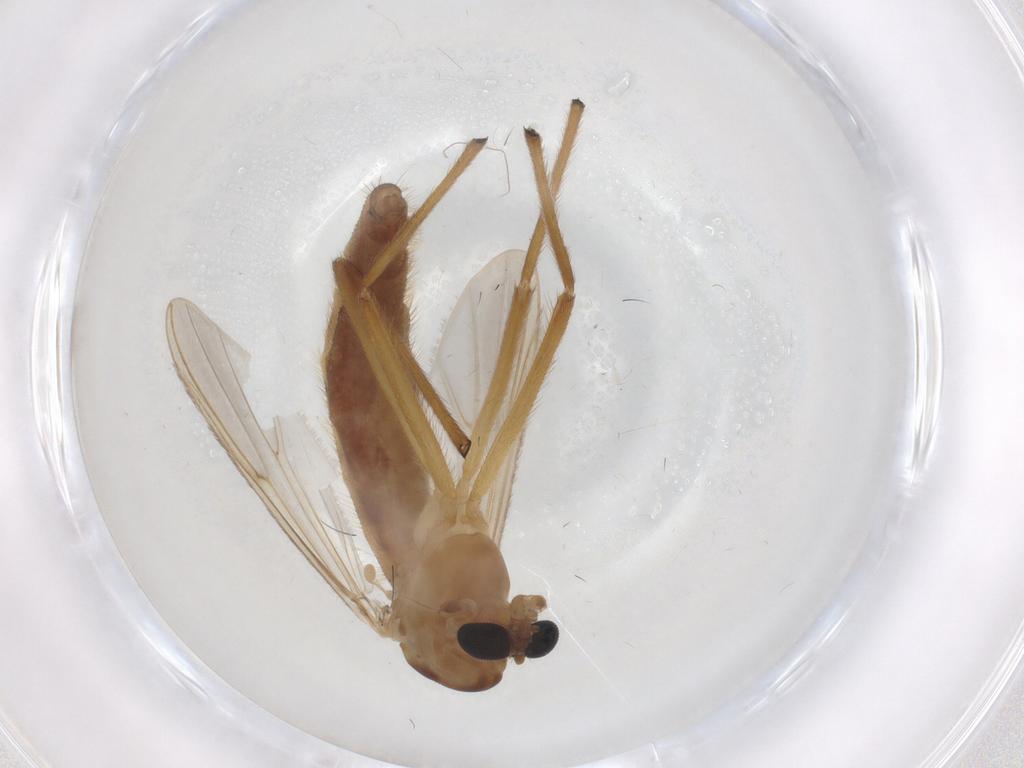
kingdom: Animalia
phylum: Arthropoda
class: Insecta
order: Diptera
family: Chironomidae
